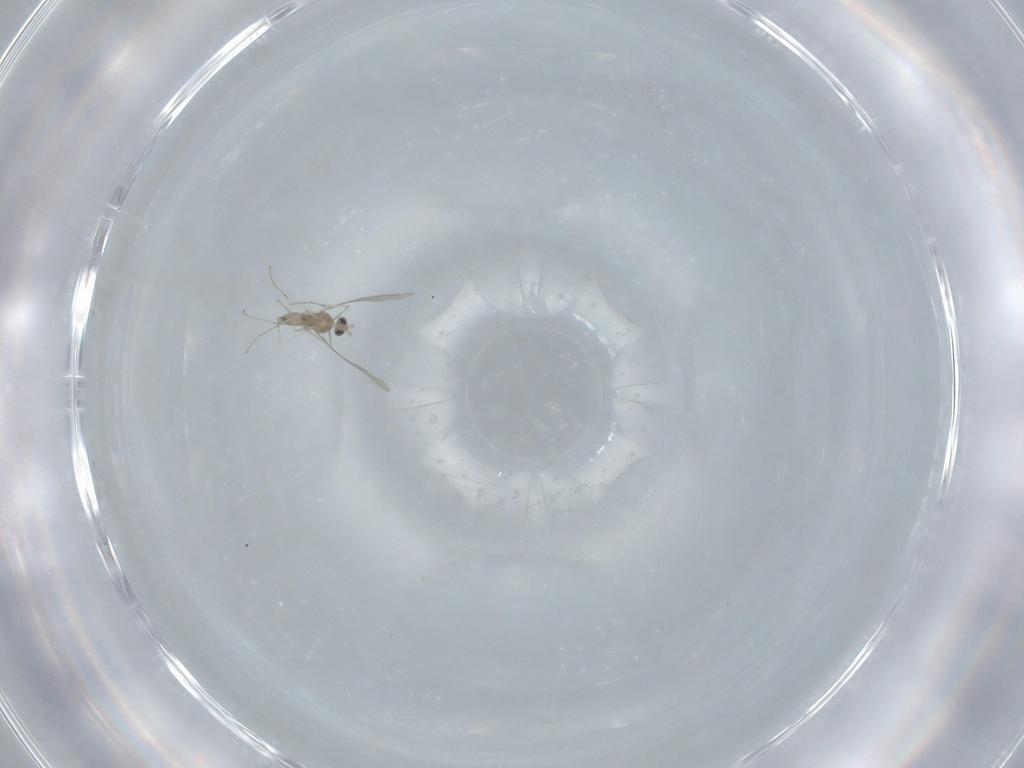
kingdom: Animalia
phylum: Arthropoda
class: Insecta
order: Diptera
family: Cecidomyiidae
